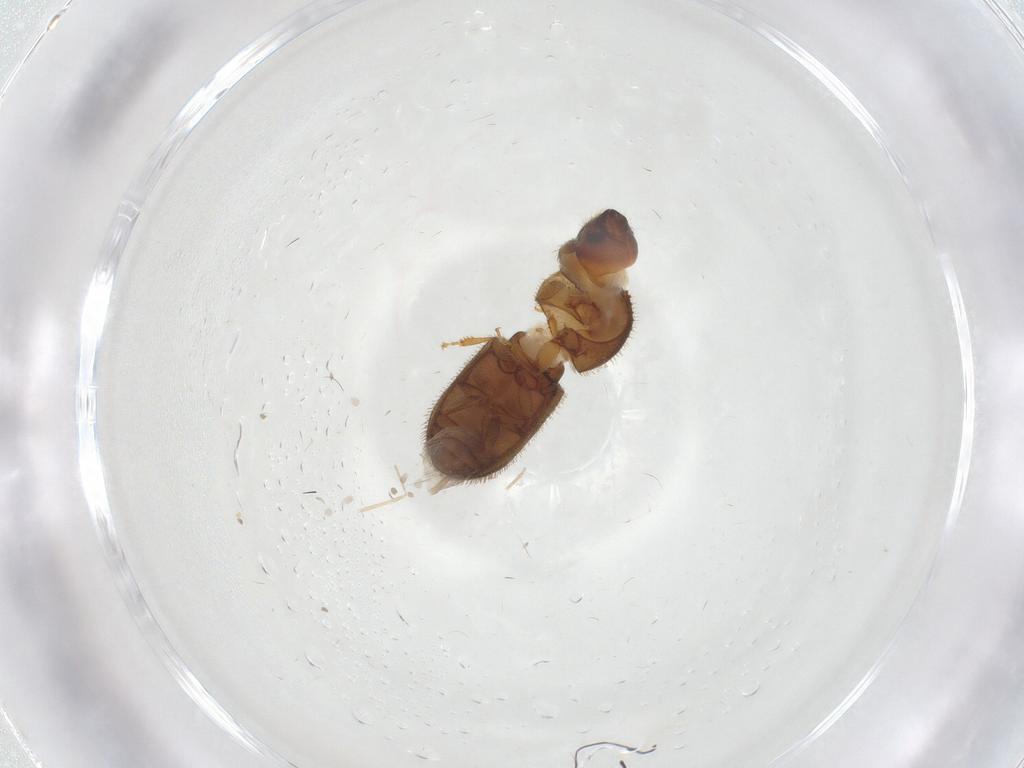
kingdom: Animalia
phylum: Arthropoda
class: Insecta
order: Coleoptera
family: Curculionidae
